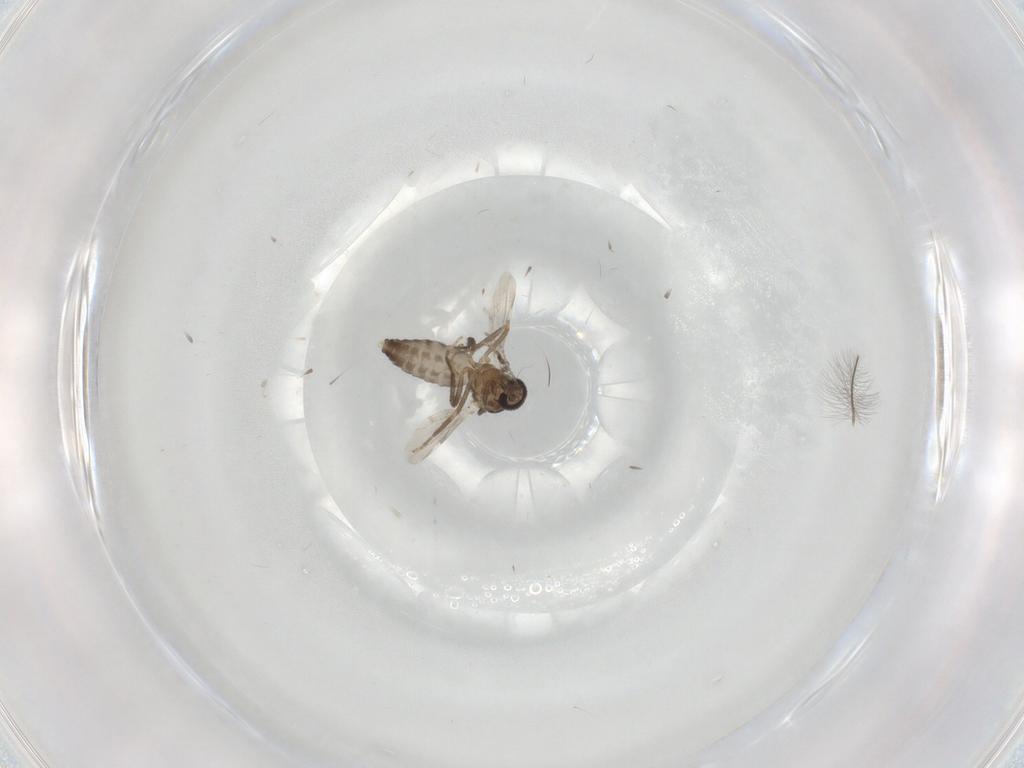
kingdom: Animalia
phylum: Arthropoda
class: Insecta
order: Diptera
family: Ceratopogonidae
